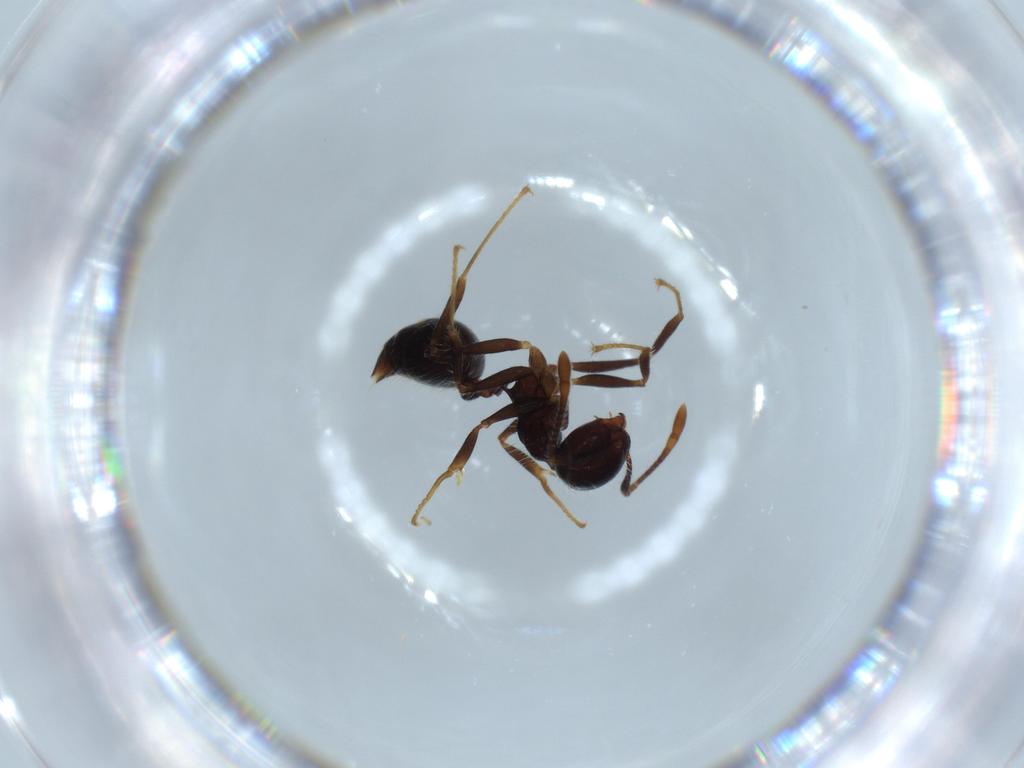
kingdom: Animalia
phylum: Arthropoda
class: Insecta
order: Hymenoptera
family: Formicidae
